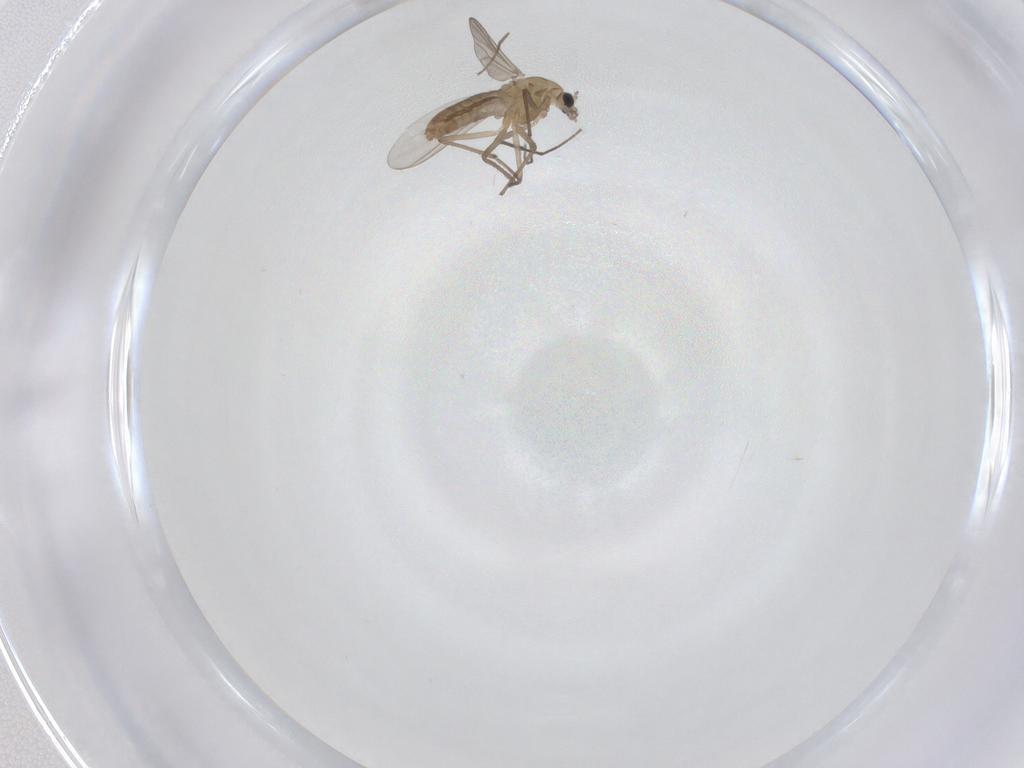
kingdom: Animalia
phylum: Arthropoda
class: Insecta
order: Diptera
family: Chironomidae
